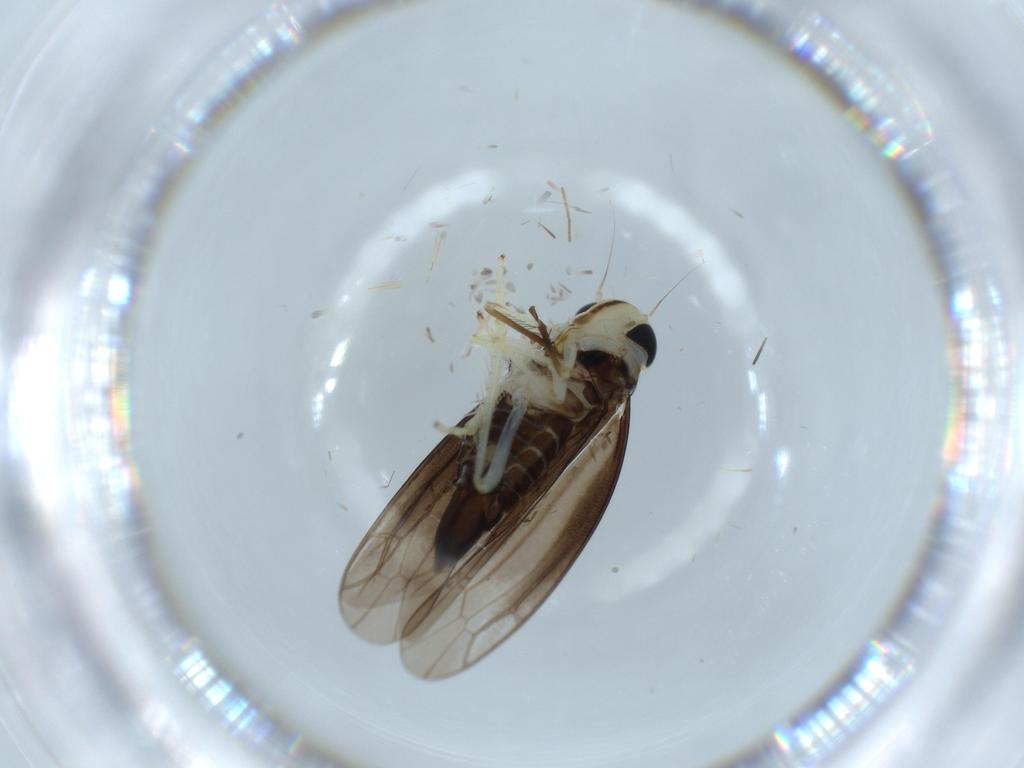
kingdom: Animalia
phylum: Arthropoda
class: Insecta
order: Hemiptera
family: Cicadellidae
